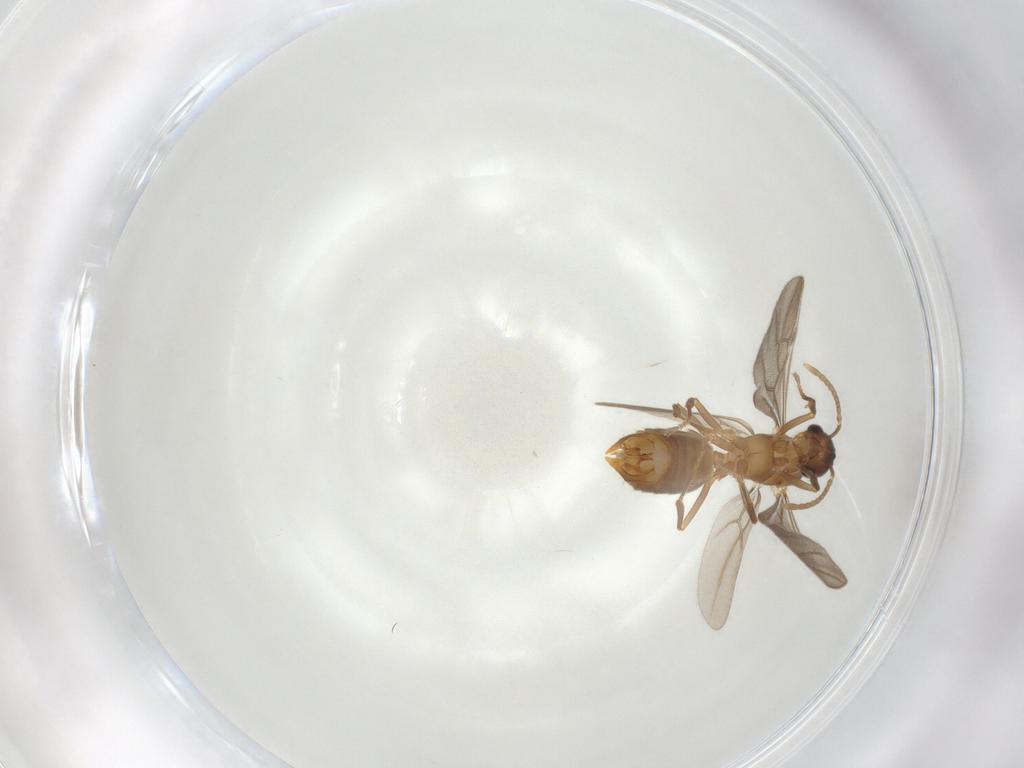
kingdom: Animalia
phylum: Arthropoda
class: Insecta
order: Hymenoptera
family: Formicidae
